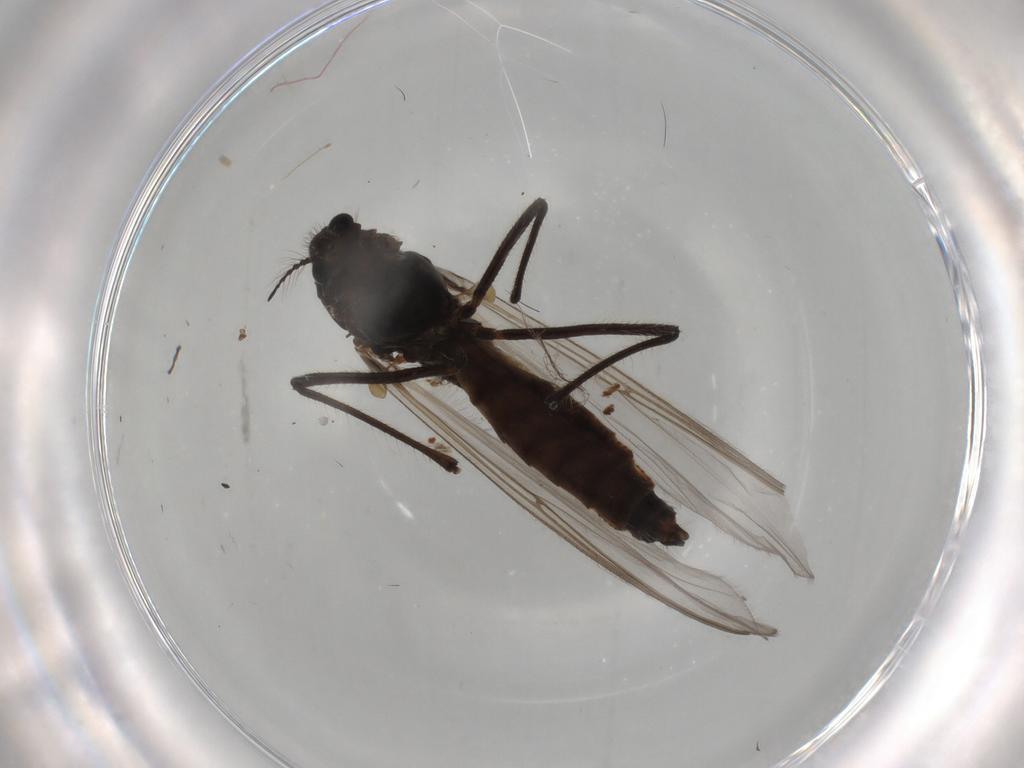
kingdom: Animalia
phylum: Arthropoda
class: Insecta
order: Diptera
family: Chironomidae
